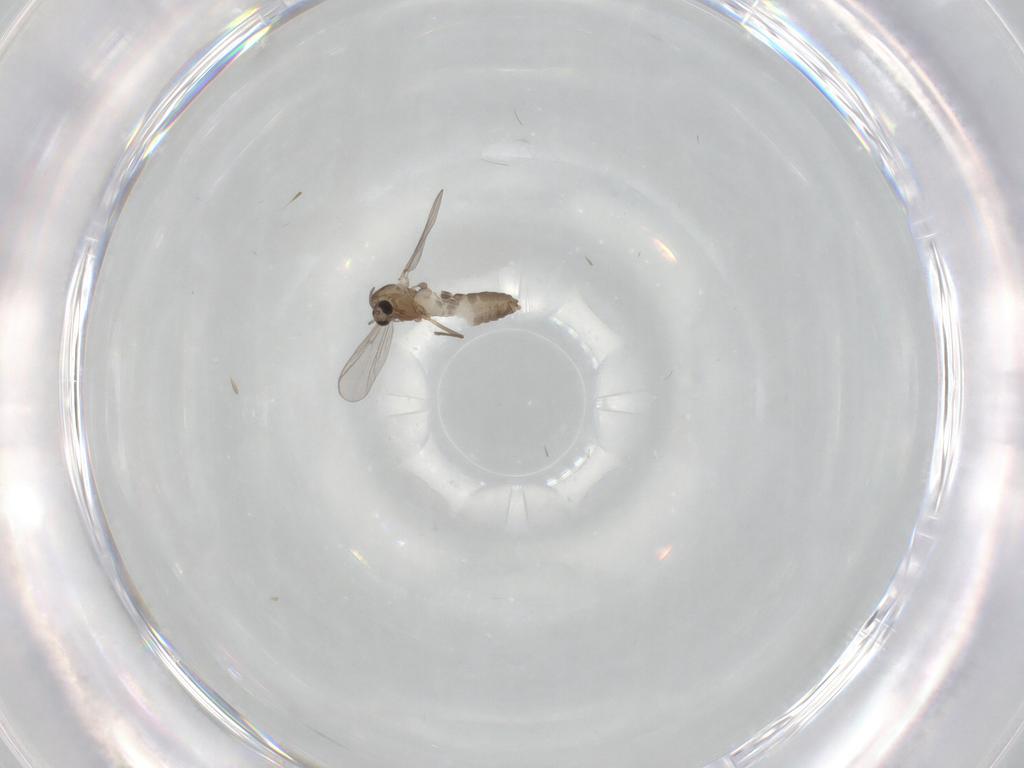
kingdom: Animalia
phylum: Arthropoda
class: Insecta
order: Diptera
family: Chironomidae
